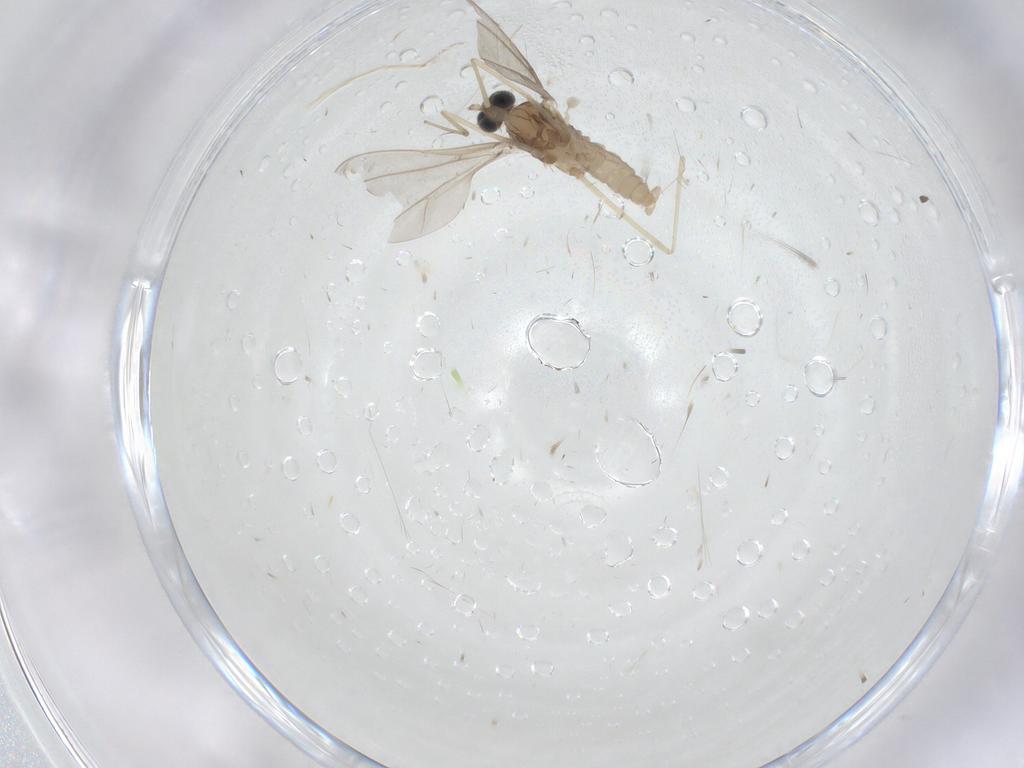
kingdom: Animalia
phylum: Arthropoda
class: Insecta
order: Diptera
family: Cecidomyiidae
